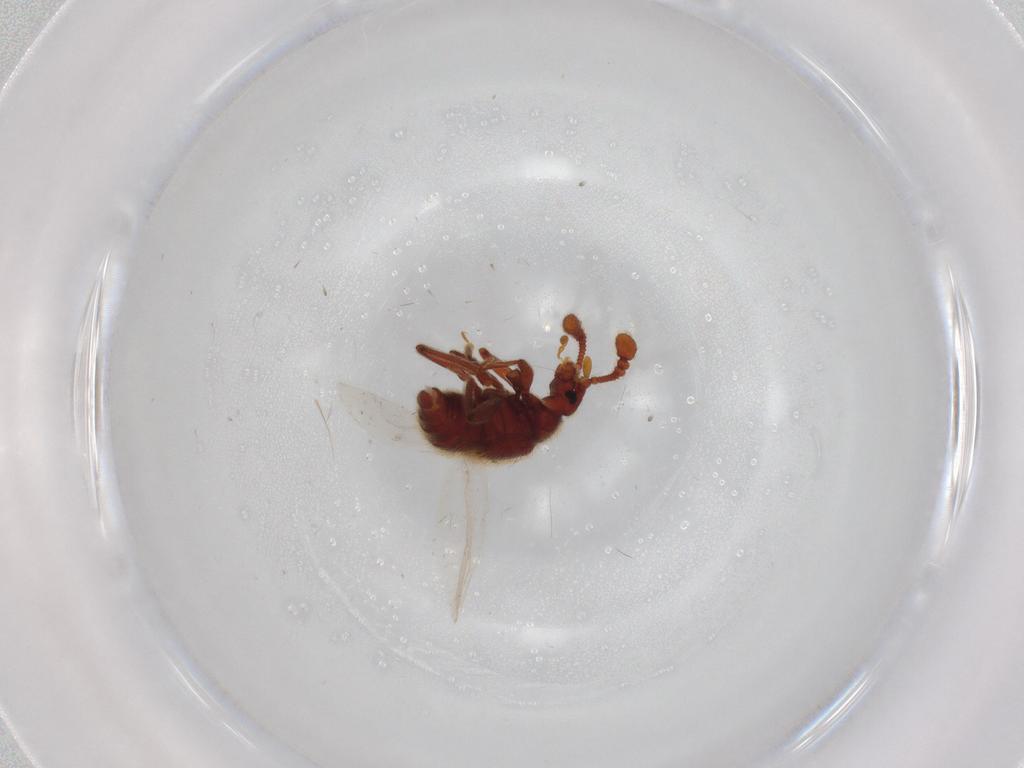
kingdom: Animalia
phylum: Arthropoda
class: Insecta
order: Coleoptera
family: Staphylinidae
